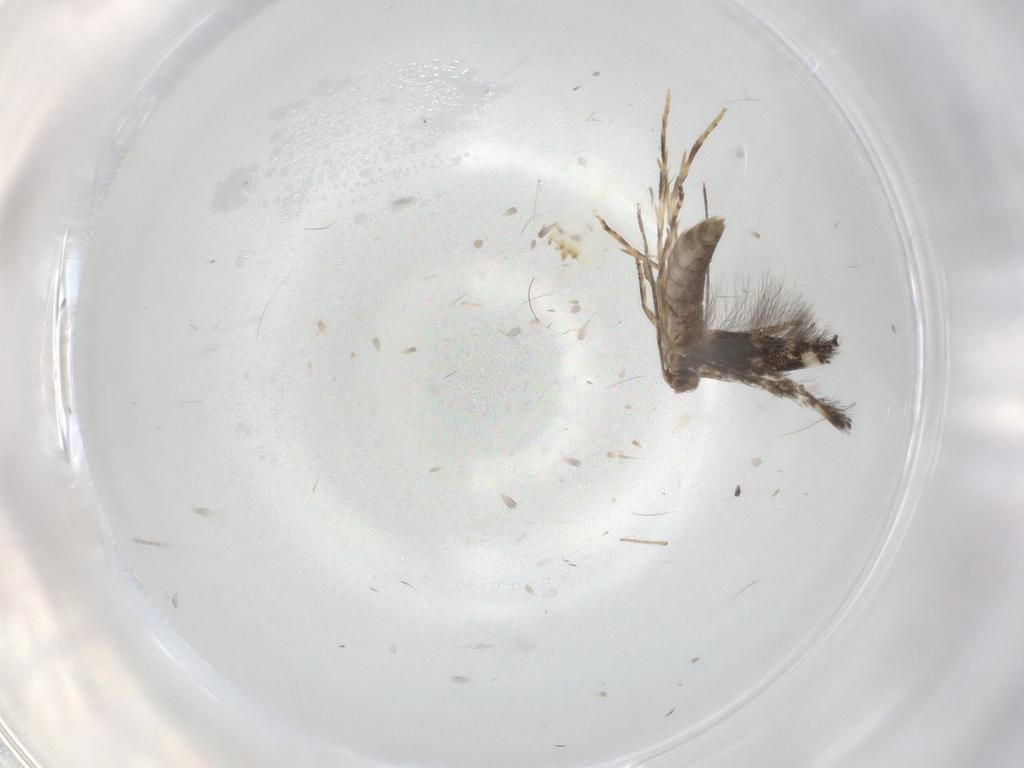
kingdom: Animalia
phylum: Arthropoda
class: Insecta
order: Lepidoptera
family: Elachistidae
